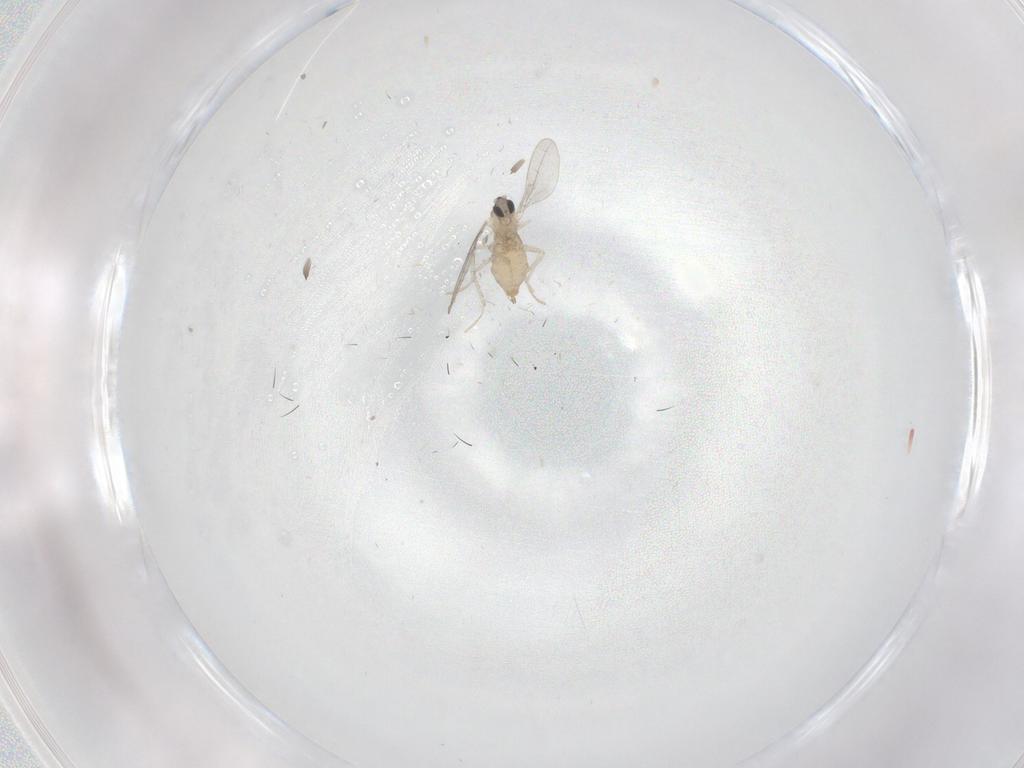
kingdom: Animalia
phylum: Arthropoda
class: Insecta
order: Diptera
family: Cecidomyiidae
